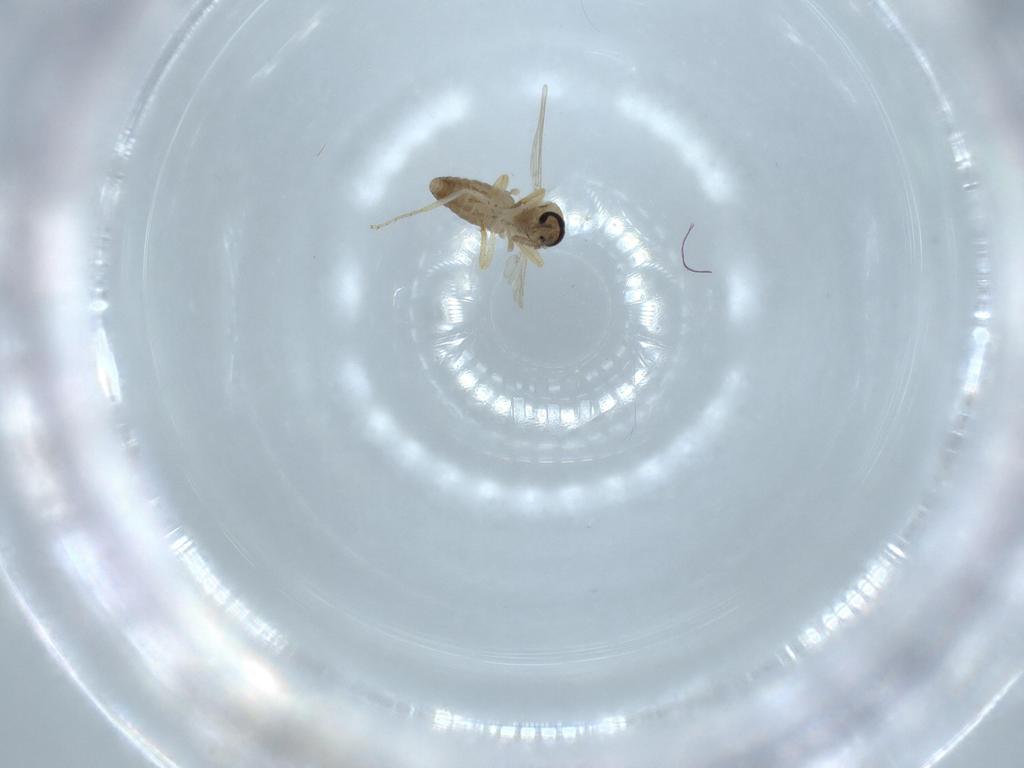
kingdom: Animalia
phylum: Arthropoda
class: Insecta
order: Diptera
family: Ceratopogonidae
